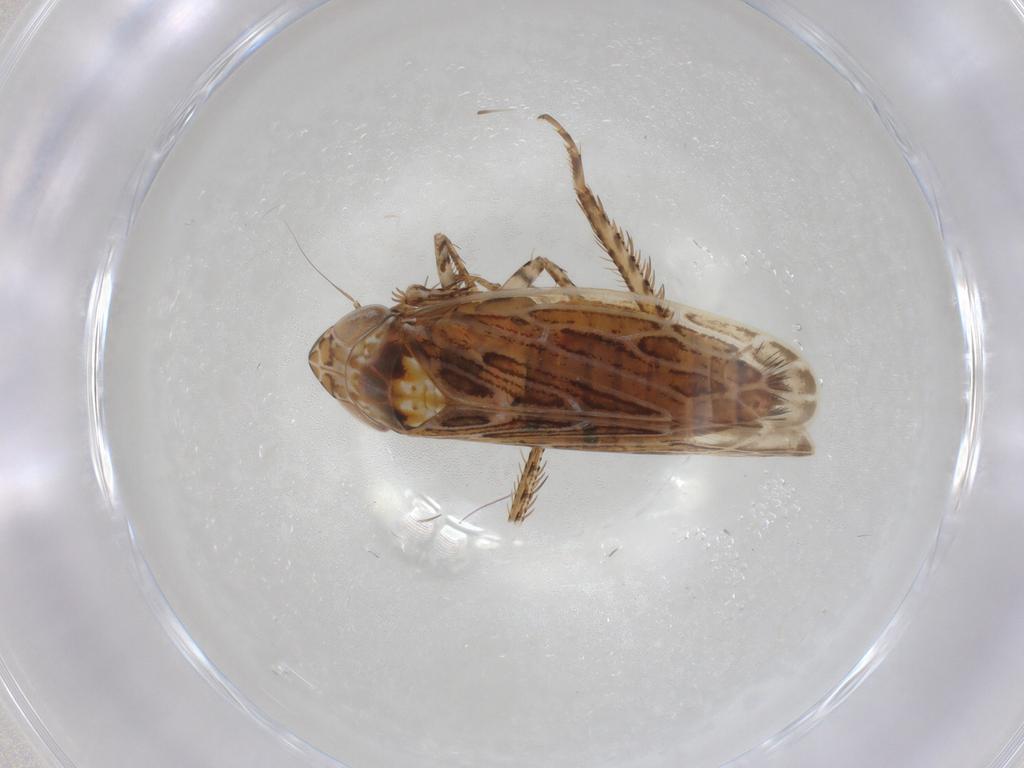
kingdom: Animalia
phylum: Arthropoda
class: Insecta
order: Hemiptera
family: Cicadellidae
